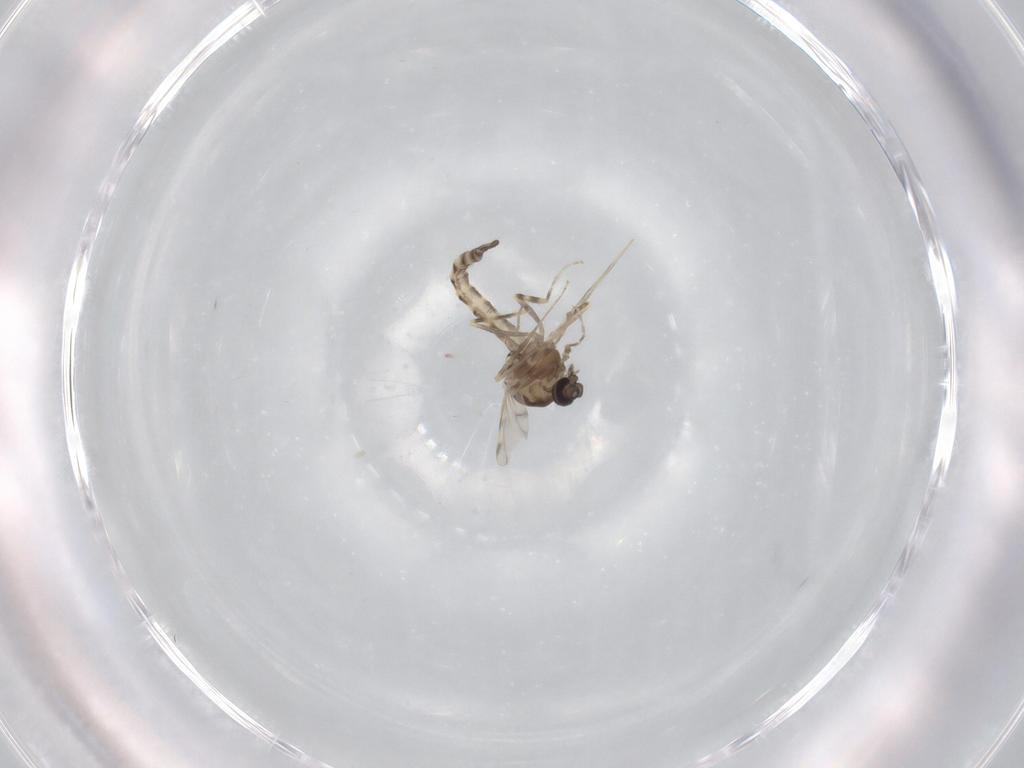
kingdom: Animalia
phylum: Arthropoda
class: Insecta
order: Diptera
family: Ceratopogonidae
